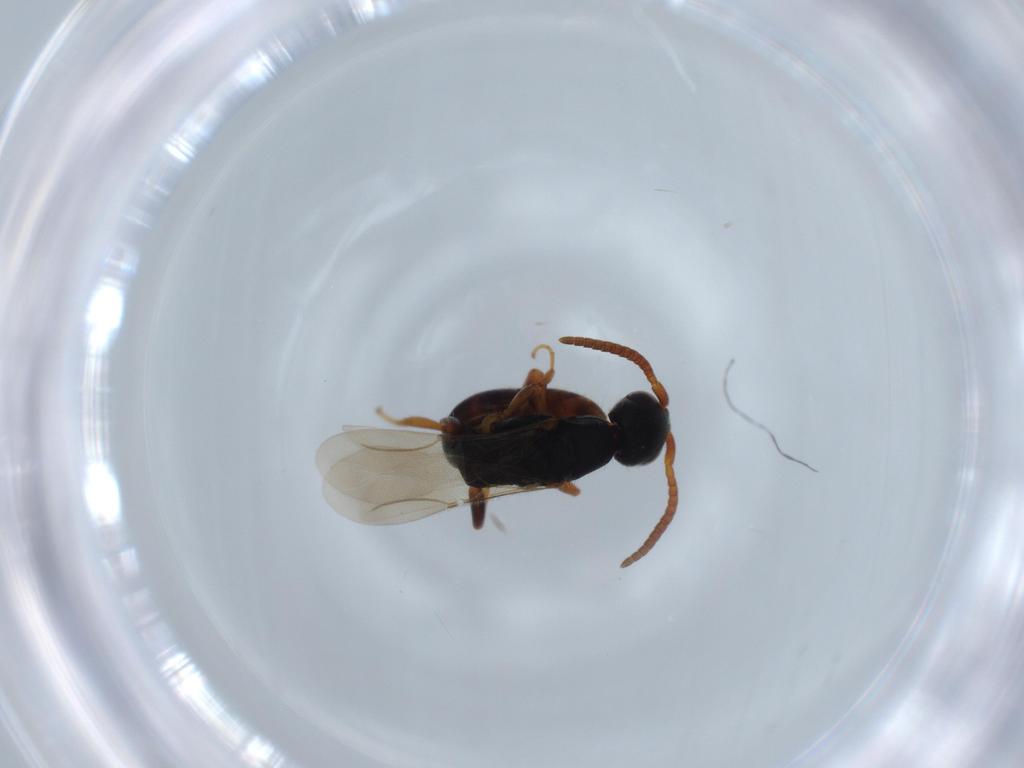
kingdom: Animalia
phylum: Arthropoda
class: Insecta
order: Hymenoptera
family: Bethylidae
